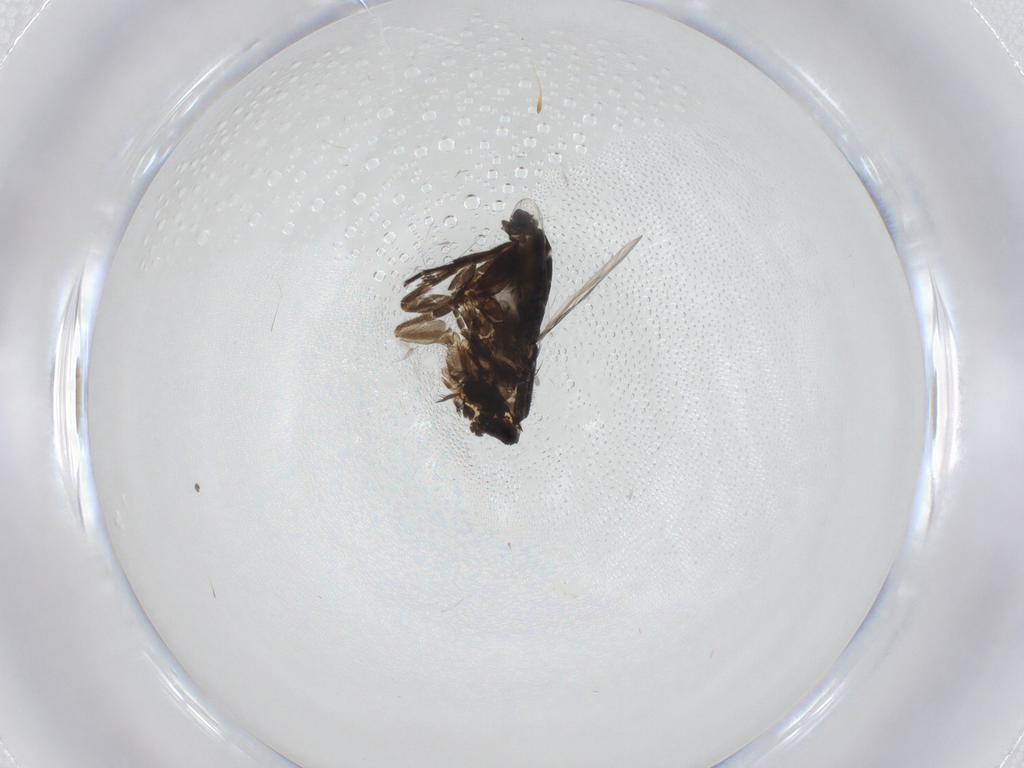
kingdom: Animalia
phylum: Arthropoda
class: Insecta
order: Diptera
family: Phoridae
